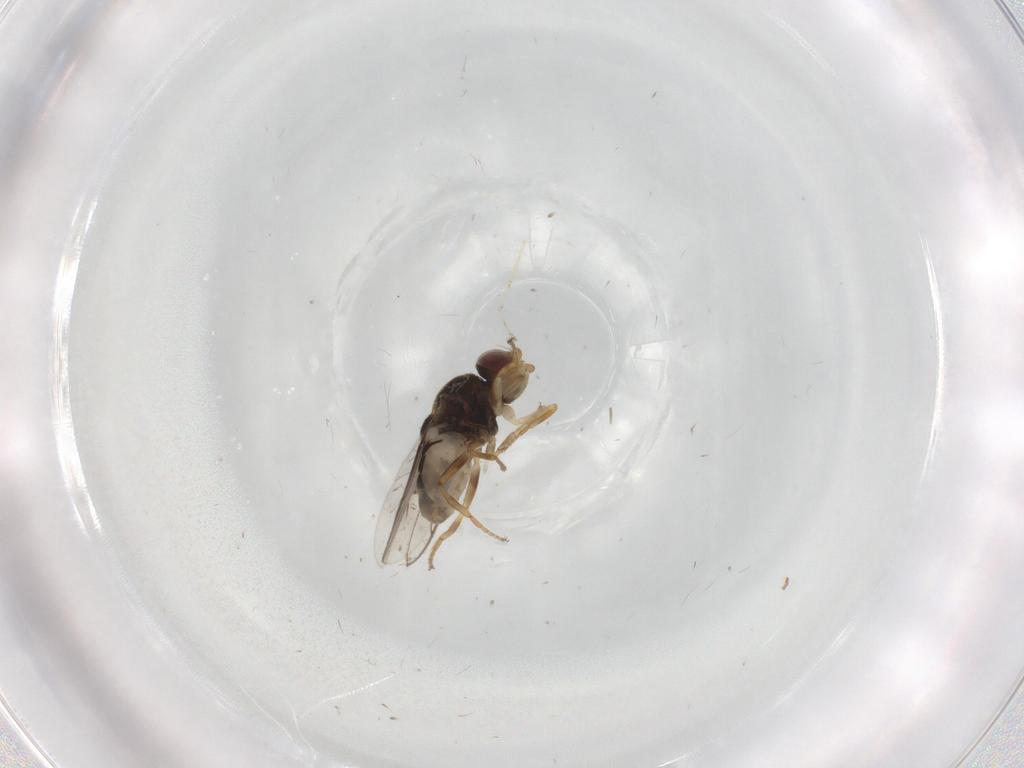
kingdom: Animalia
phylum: Arthropoda
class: Insecta
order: Diptera
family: Chloropidae
